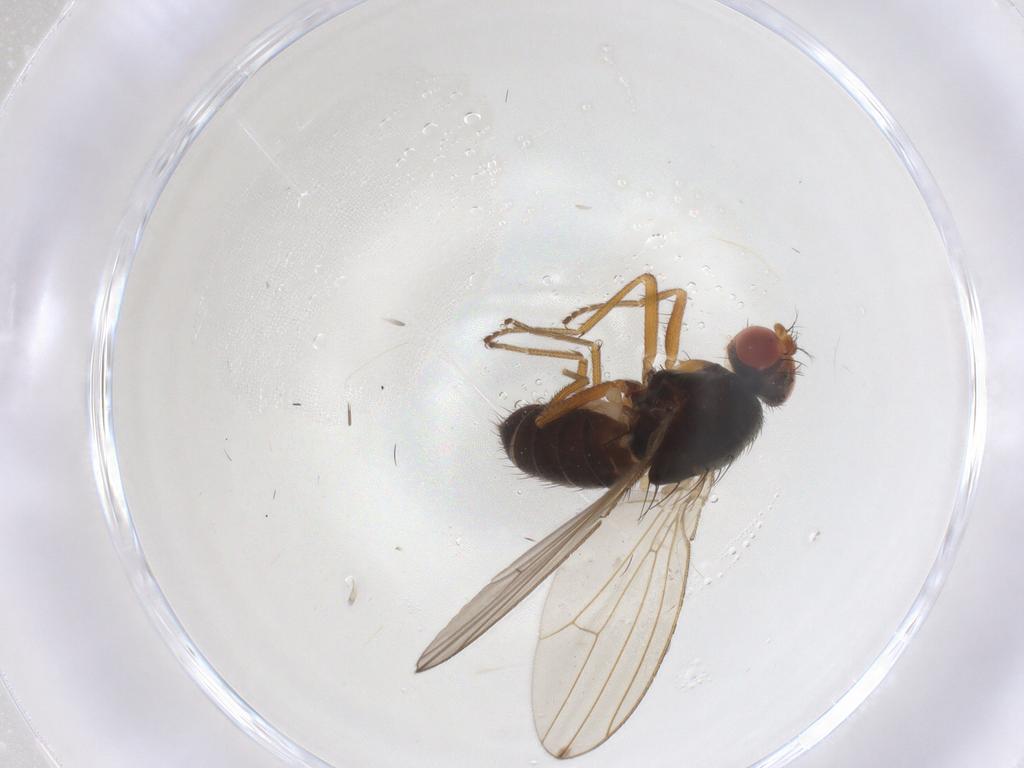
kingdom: Animalia
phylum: Arthropoda
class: Insecta
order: Diptera
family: Drosophilidae
